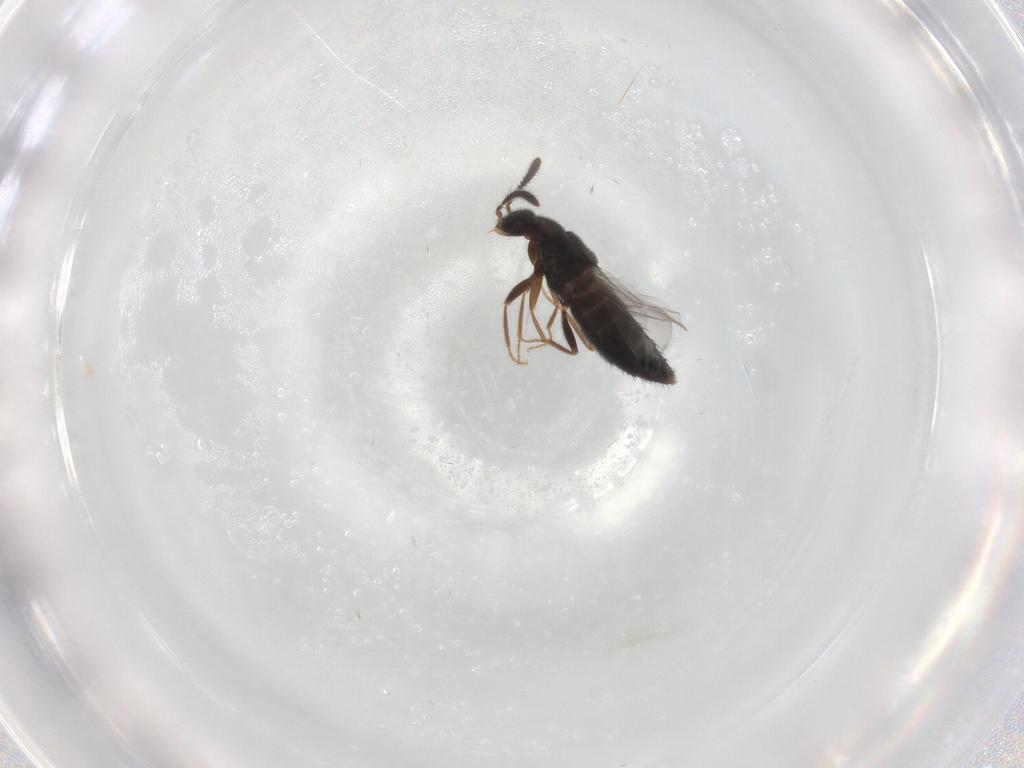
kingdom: Animalia
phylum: Arthropoda
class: Insecta
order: Coleoptera
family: Staphylinidae
